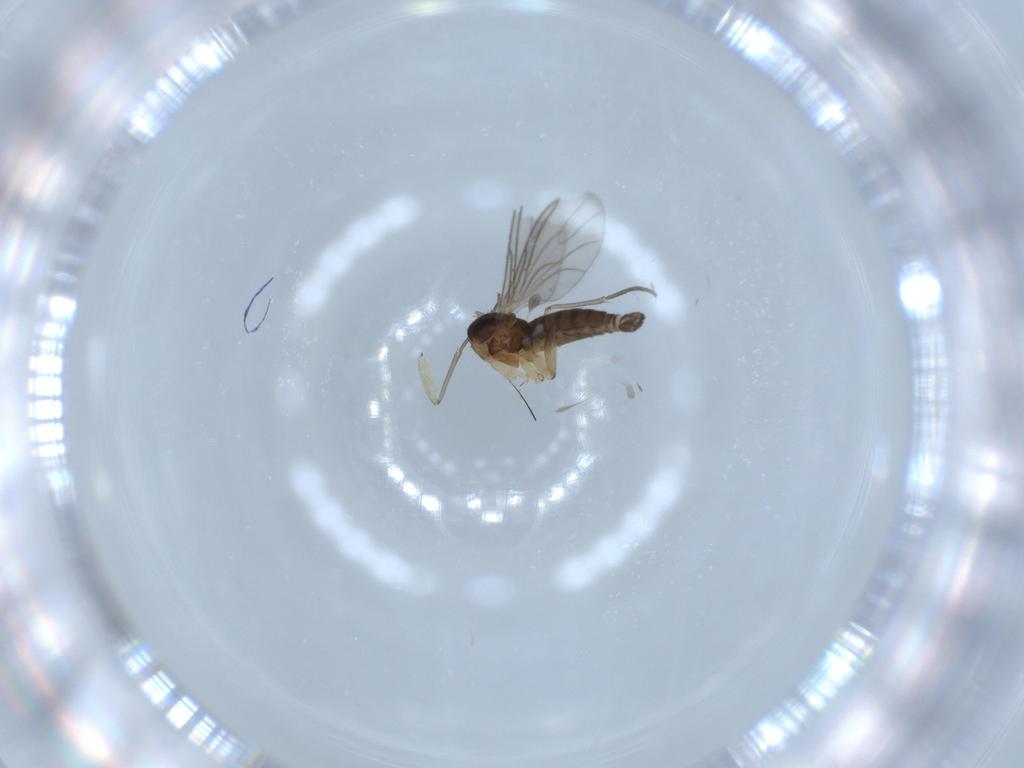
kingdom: Animalia
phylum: Arthropoda
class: Insecta
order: Diptera
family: Sciaridae
